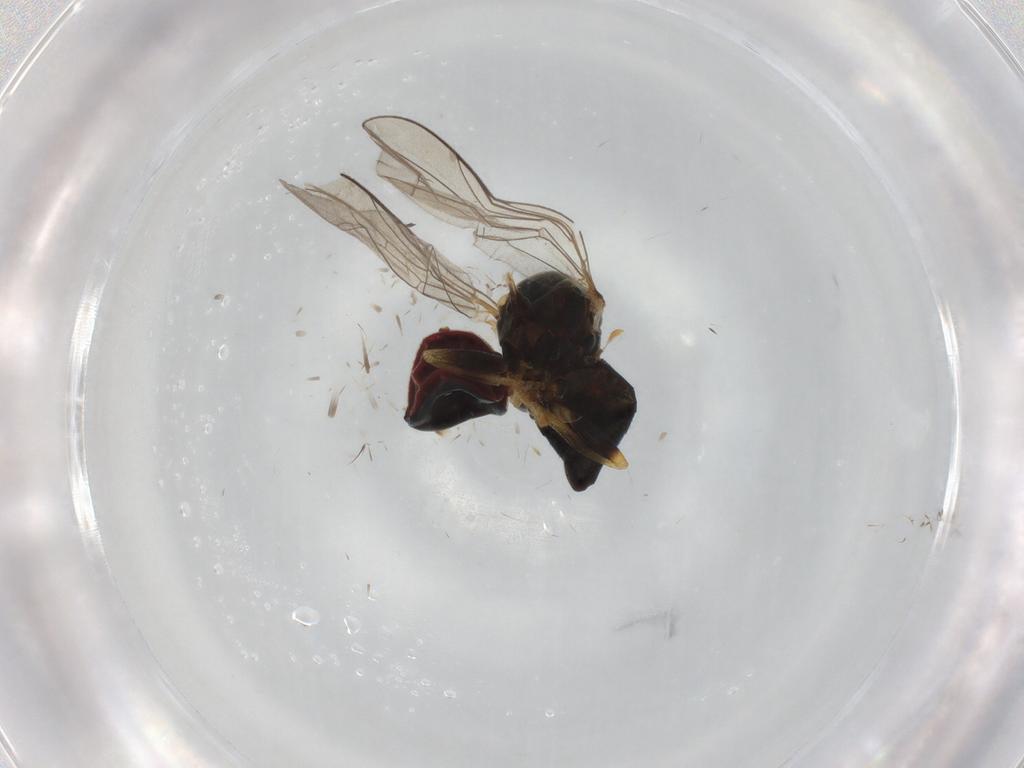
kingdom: Animalia
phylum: Arthropoda
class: Insecta
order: Diptera
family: Pipunculidae
